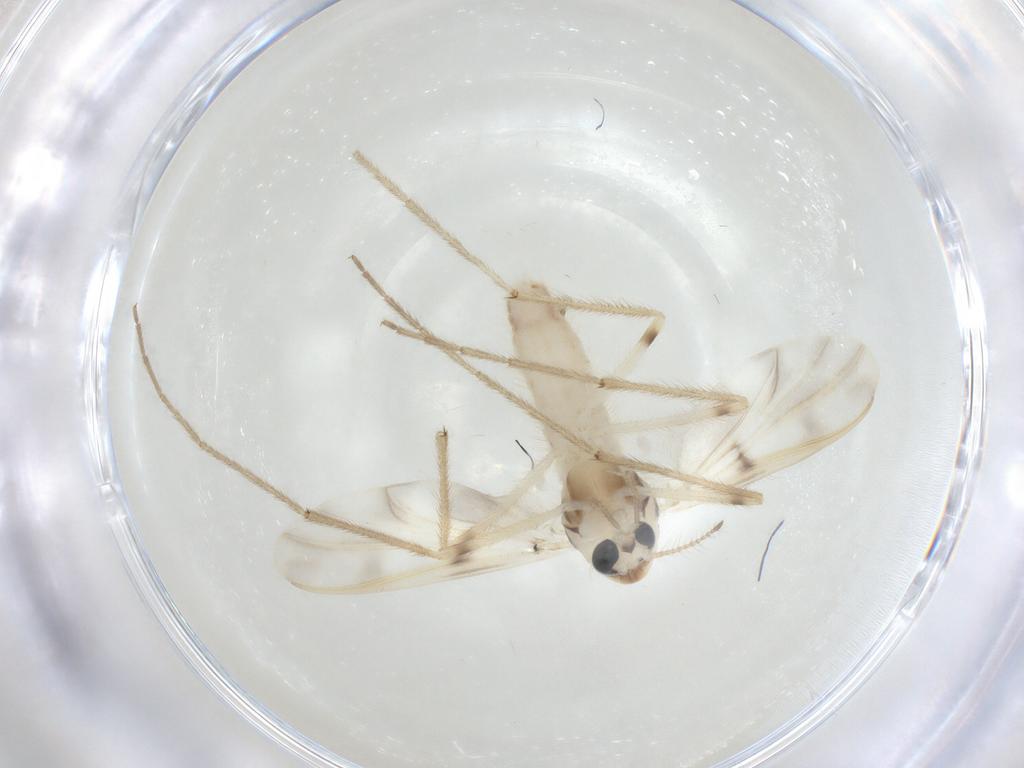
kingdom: Animalia
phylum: Arthropoda
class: Insecta
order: Diptera
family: Chironomidae
